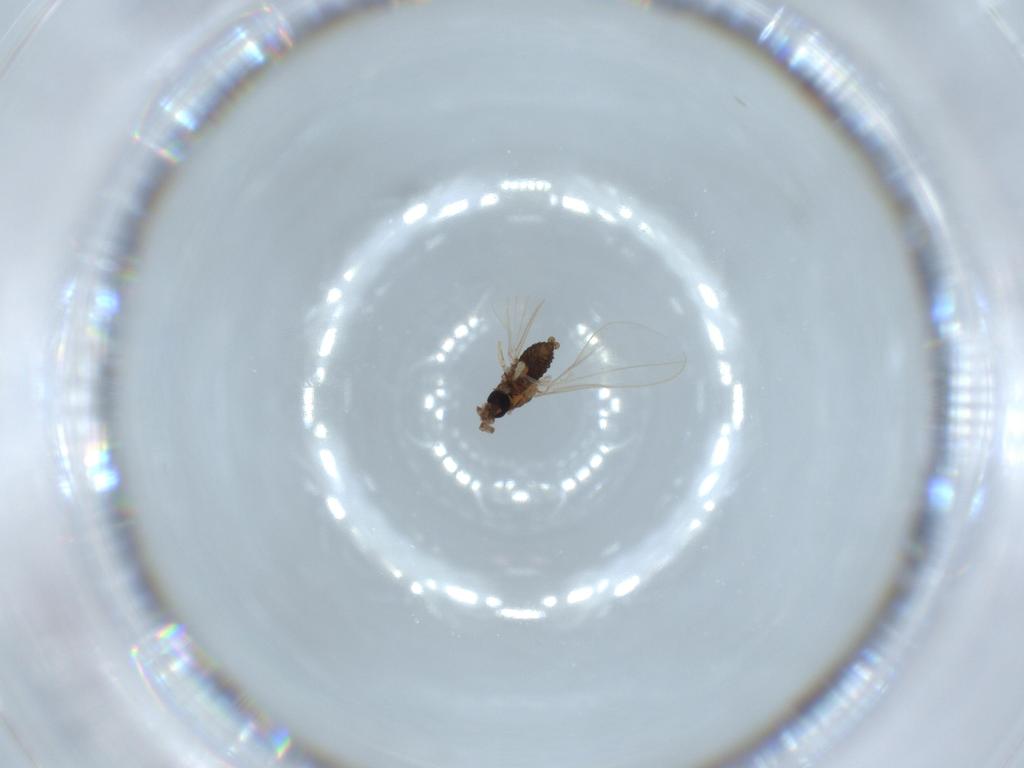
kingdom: Animalia
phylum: Arthropoda
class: Insecta
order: Diptera
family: Cecidomyiidae
